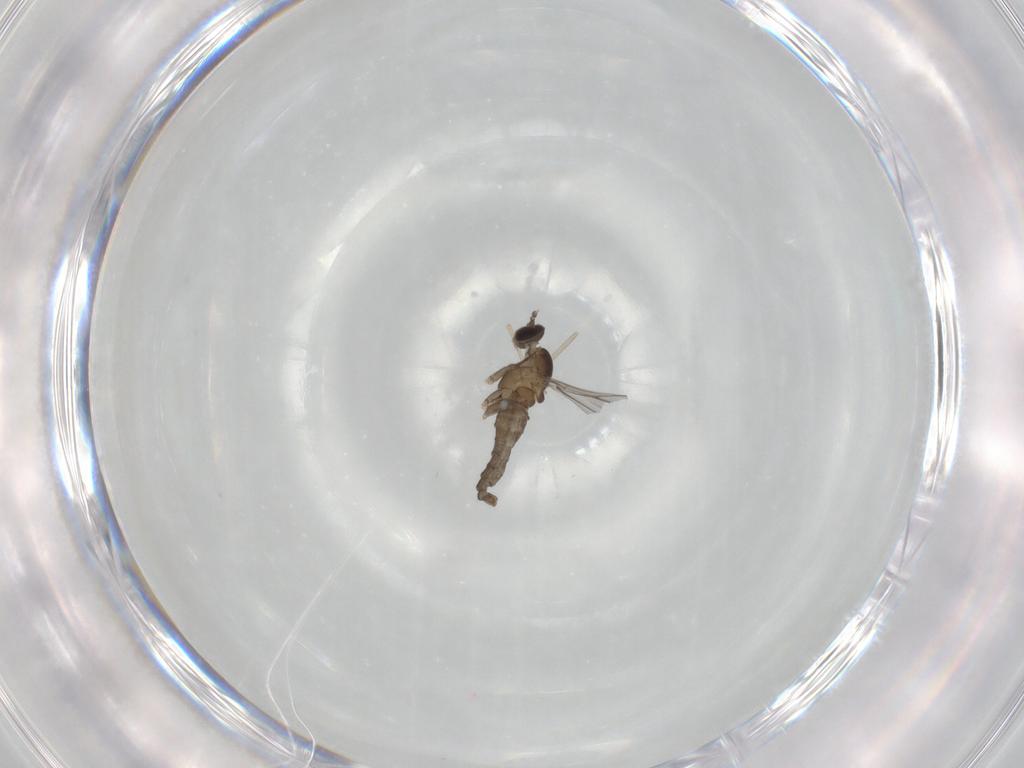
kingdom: Animalia
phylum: Arthropoda
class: Insecta
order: Diptera
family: Cecidomyiidae
